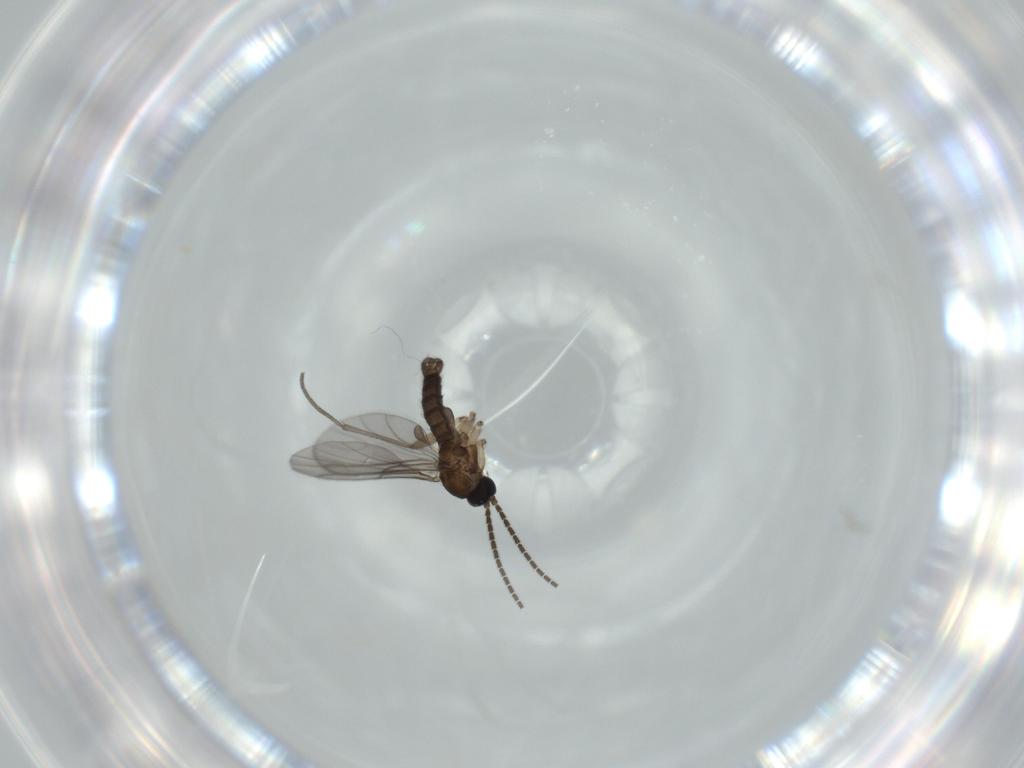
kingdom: Animalia
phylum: Arthropoda
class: Insecta
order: Diptera
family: Sciaridae
